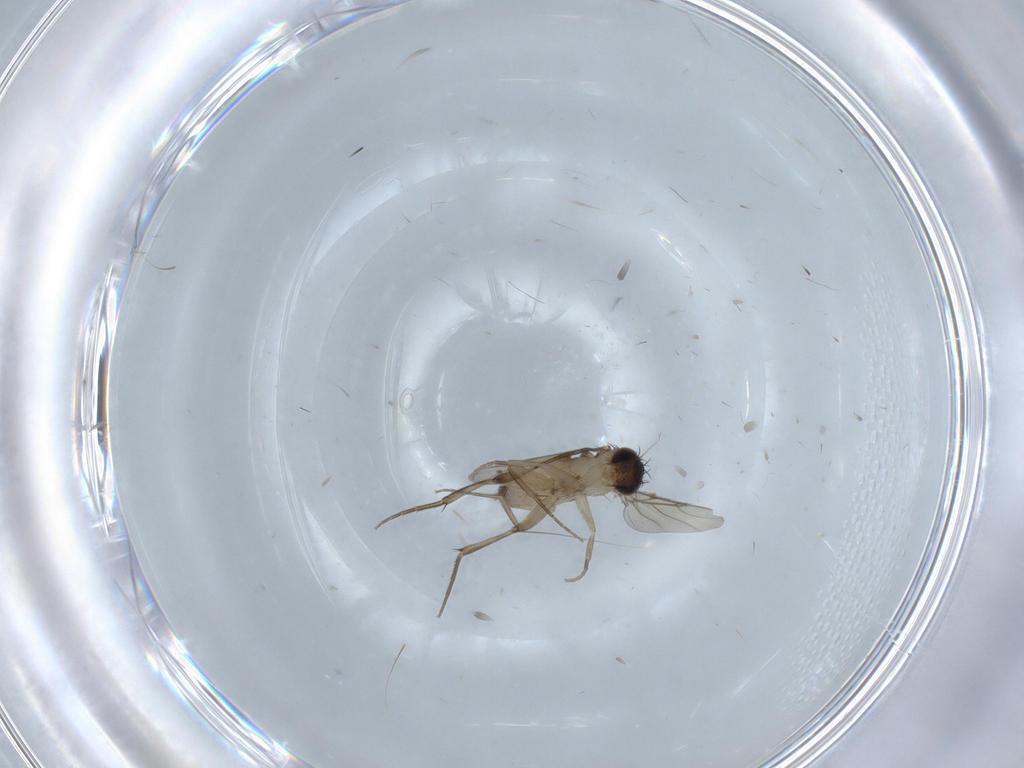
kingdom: Animalia
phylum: Arthropoda
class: Insecta
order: Diptera
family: Phoridae
